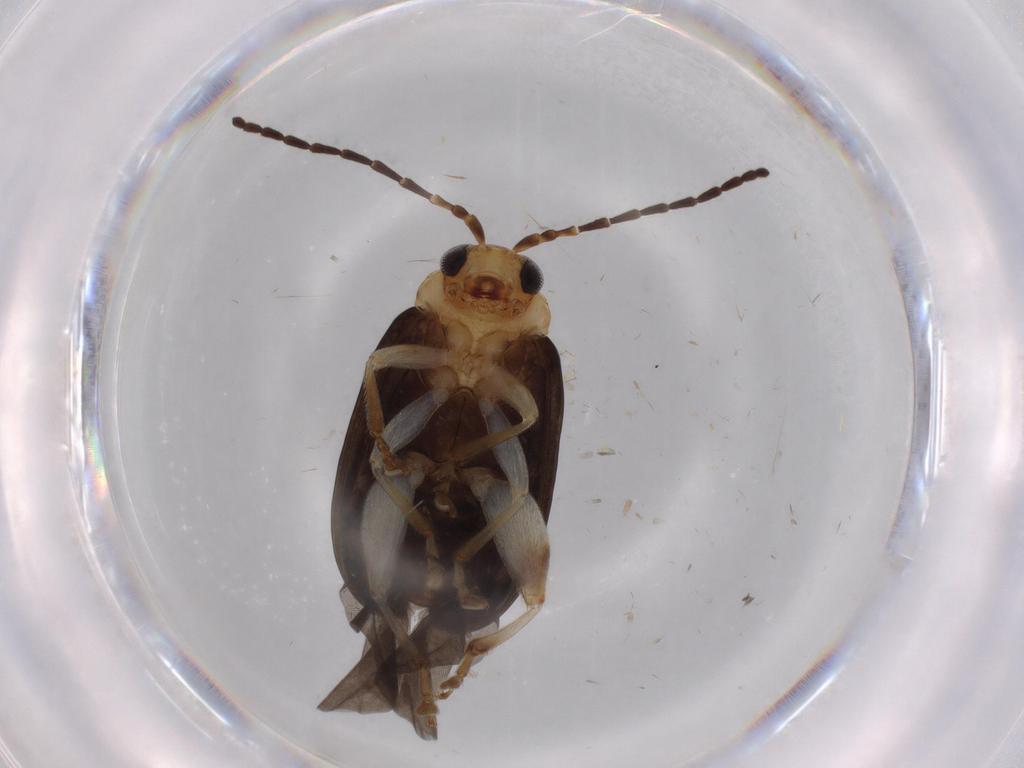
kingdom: Animalia
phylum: Arthropoda
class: Insecta
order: Coleoptera
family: Chrysomelidae
